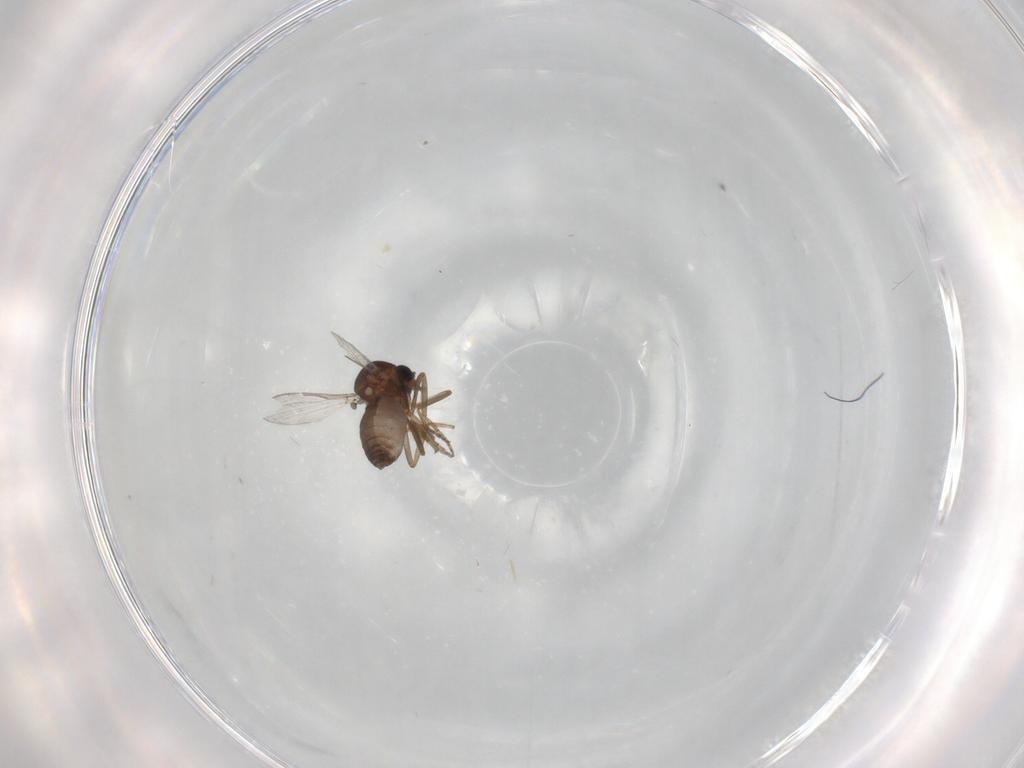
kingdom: Animalia
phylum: Arthropoda
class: Insecta
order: Diptera
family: Ceratopogonidae
